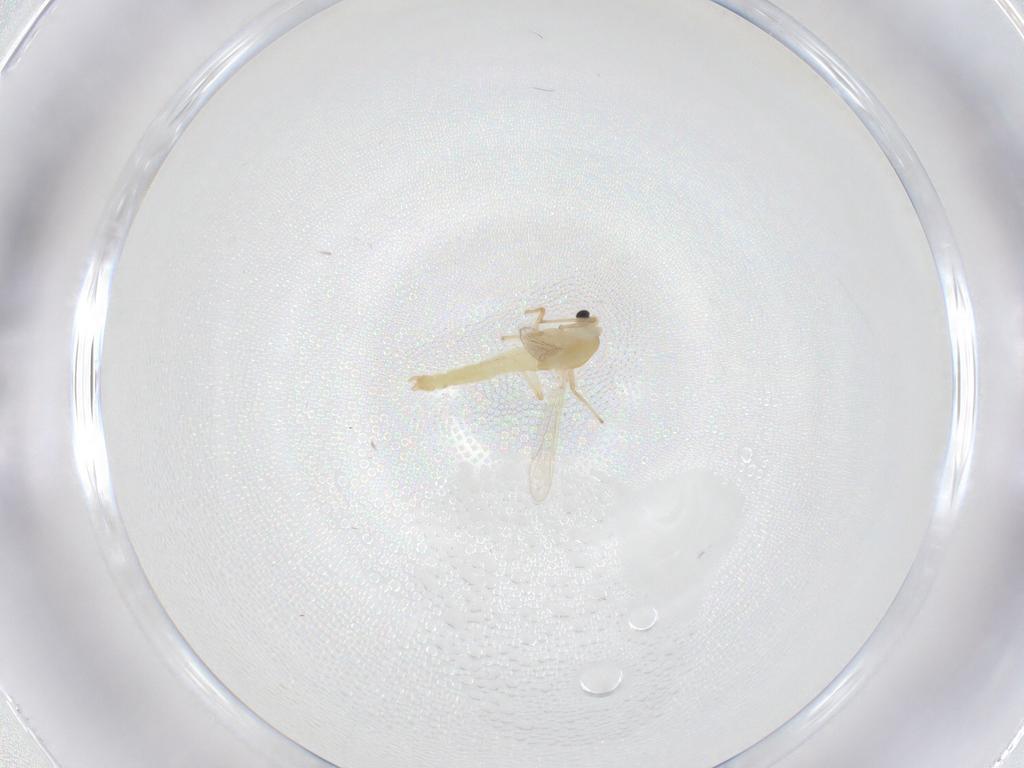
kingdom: Animalia
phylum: Arthropoda
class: Insecta
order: Diptera
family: Chironomidae
